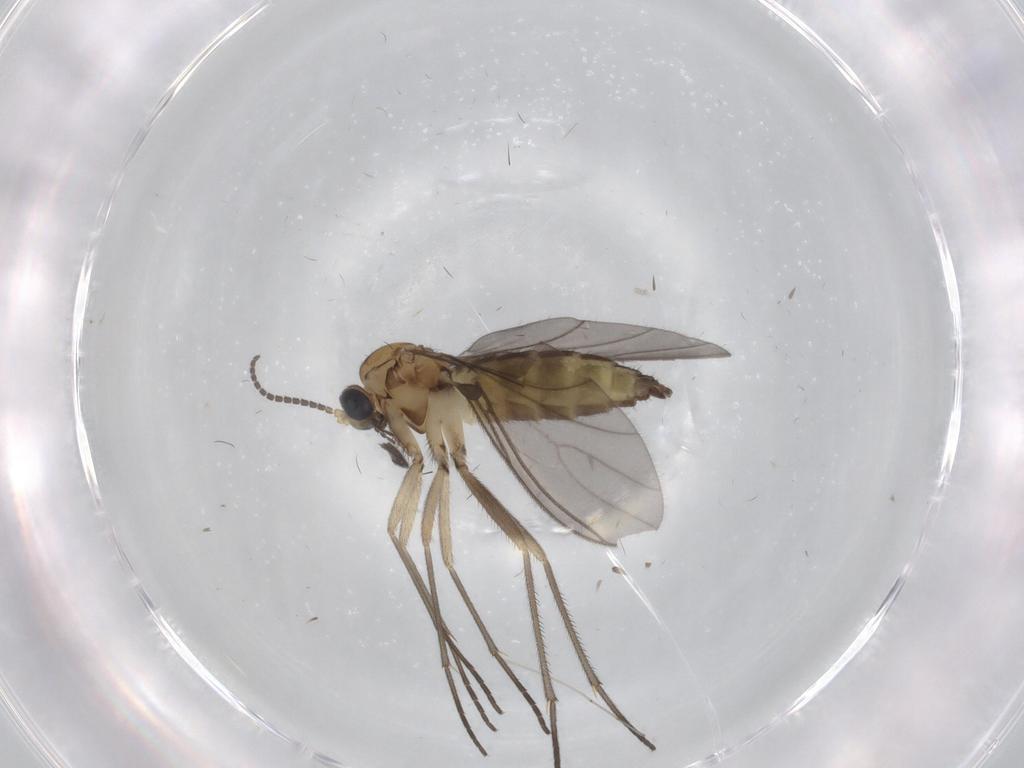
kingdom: Animalia
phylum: Arthropoda
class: Insecta
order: Diptera
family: Sciaridae
